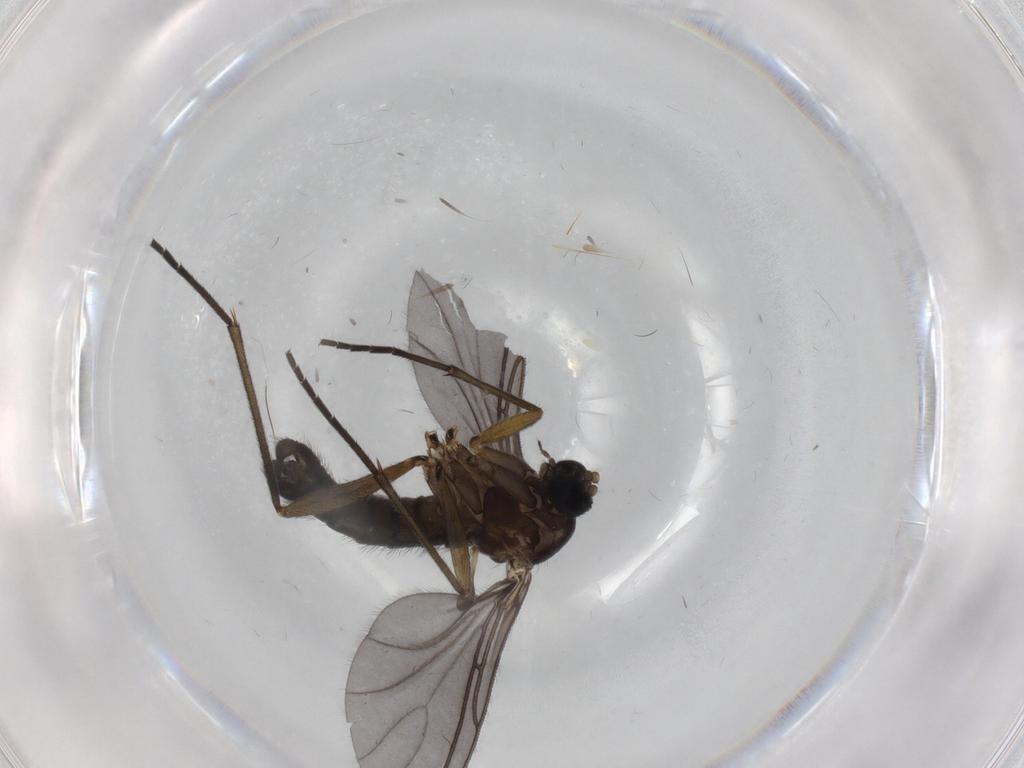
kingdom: Animalia
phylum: Arthropoda
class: Insecta
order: Diptera
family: Sciaridae
